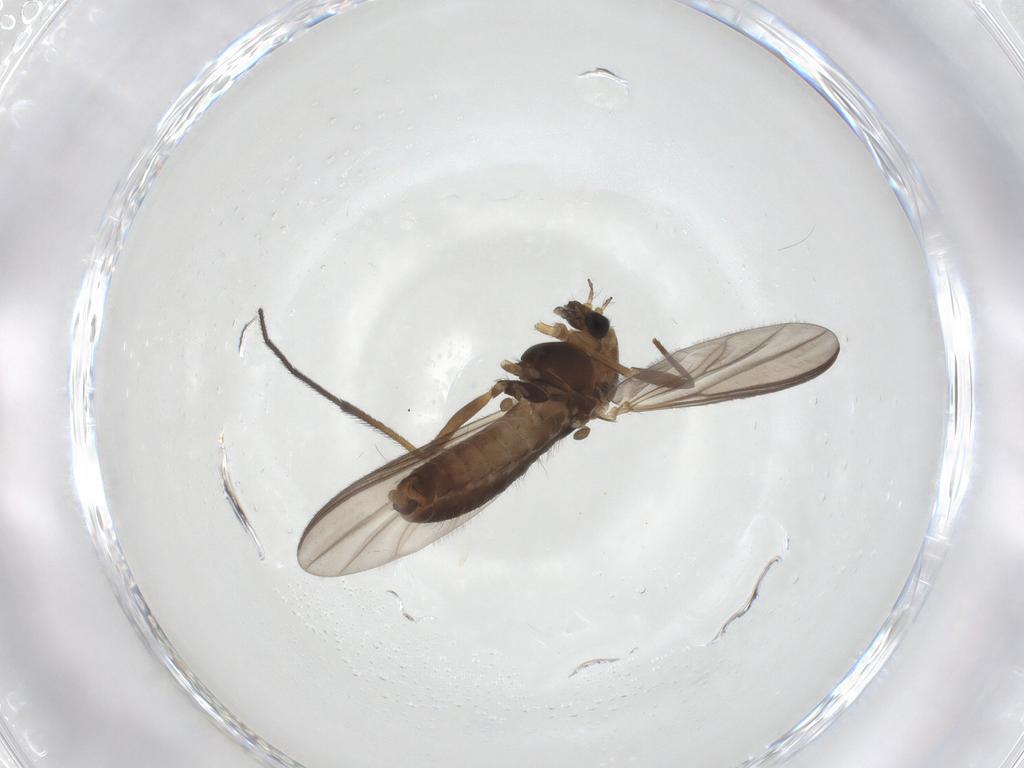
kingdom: Animalia
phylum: Arthropoda
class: Insecta
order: Diptera
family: Chironomidae
